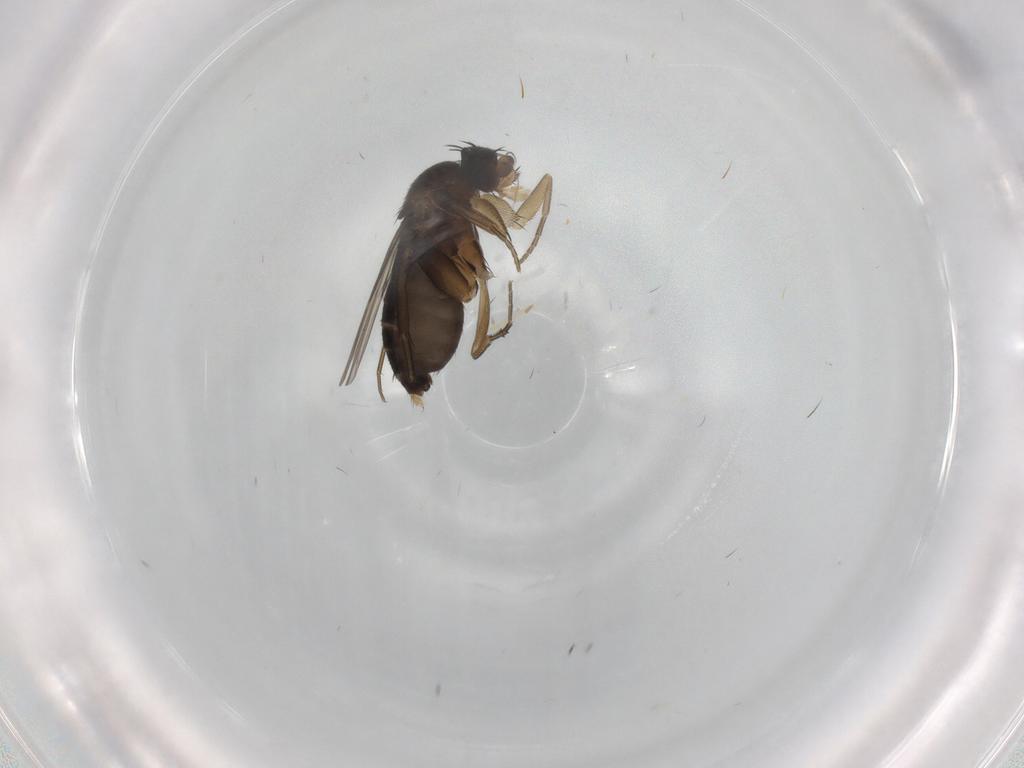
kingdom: Animalia
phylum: Arthropoda
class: Insecta
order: Diptera
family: Phoridae
